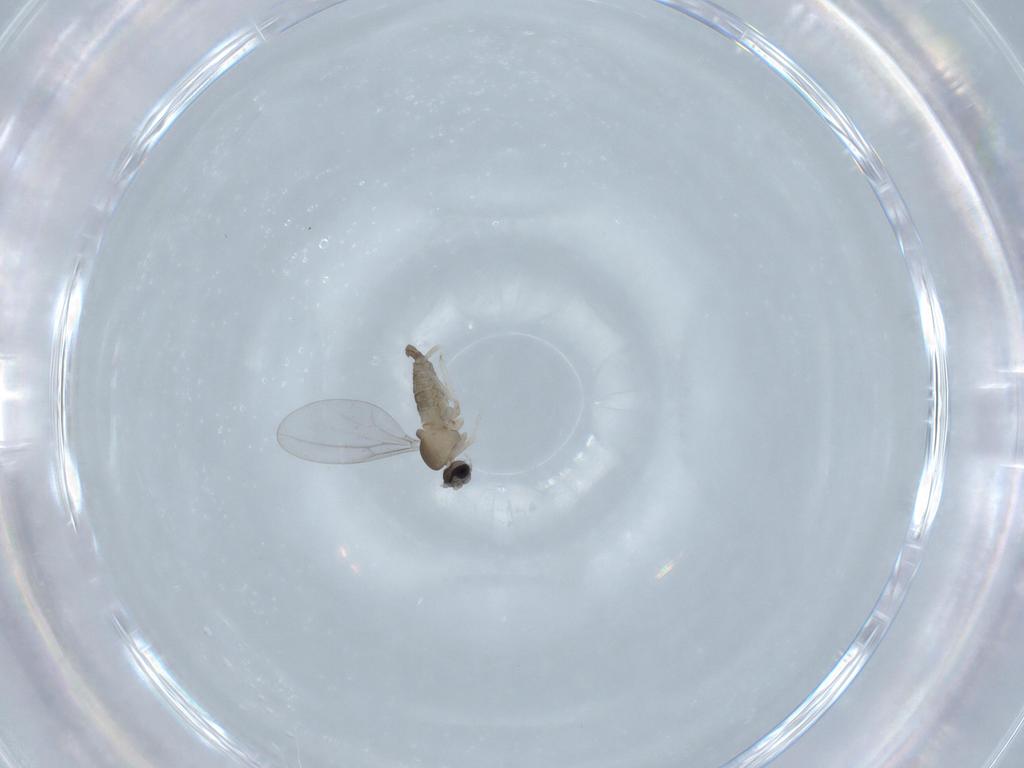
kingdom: Animalia
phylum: Arthropoda
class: Insecta
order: Diptera
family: Cecidomyiidae
